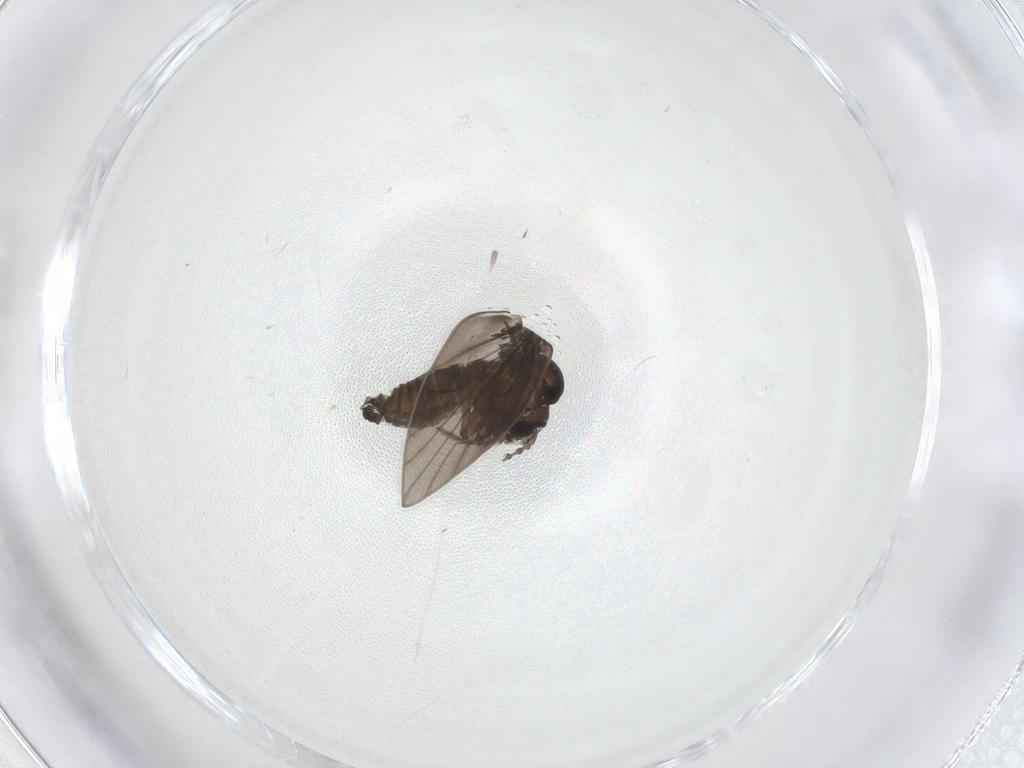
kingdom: Animalia
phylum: Arthropoda
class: Insecta
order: Diptera
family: Psychodidae
